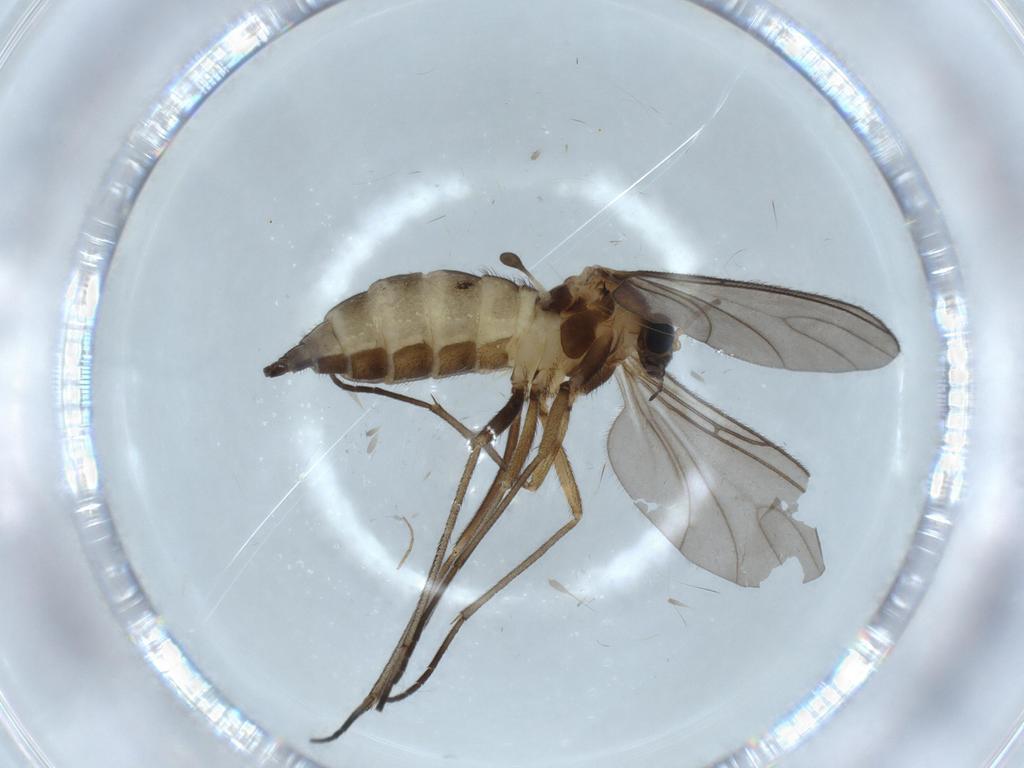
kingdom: Animalia
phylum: Arthropoda
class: Insecta
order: Diptera
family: Sciaridae
